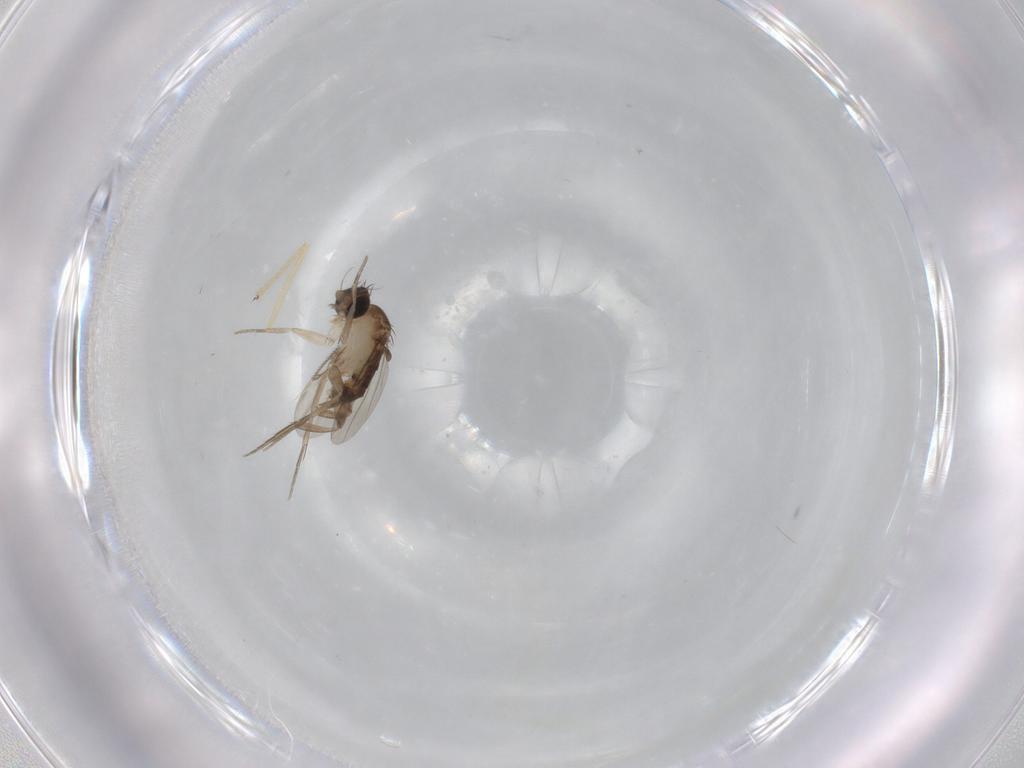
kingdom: Animalia
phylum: Arthropoda
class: Insecta
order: Diptera
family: Phoridae
